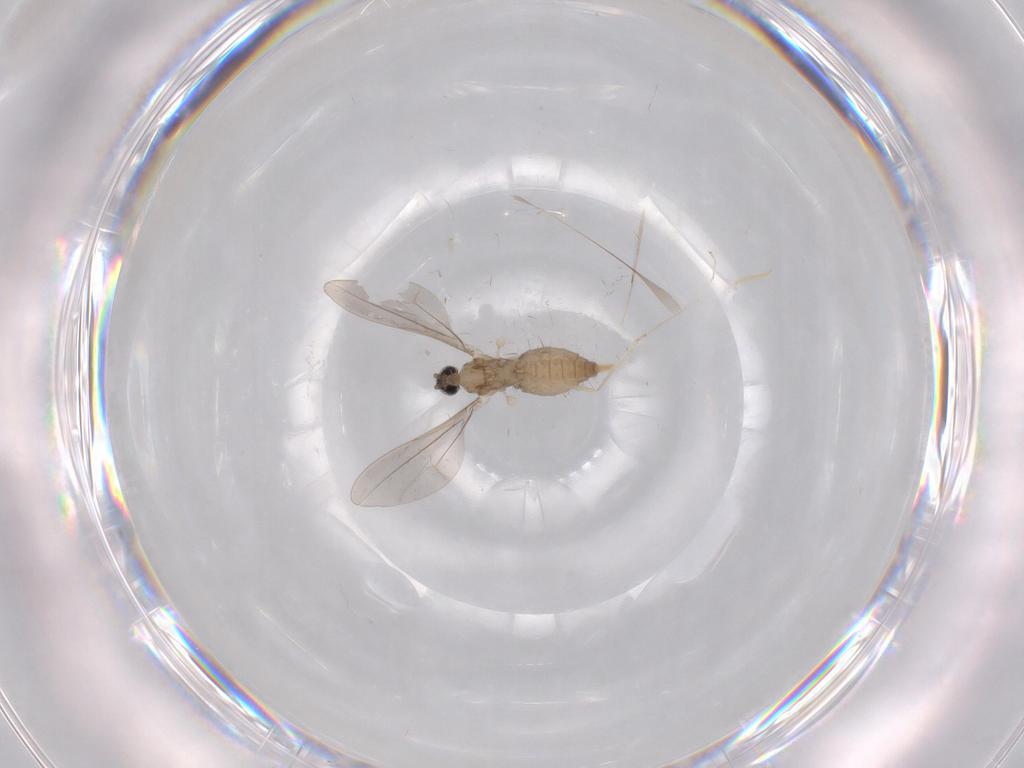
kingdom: Animalia
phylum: Arthropoda
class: Insecta
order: Diptera
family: Cecidomyiidae
